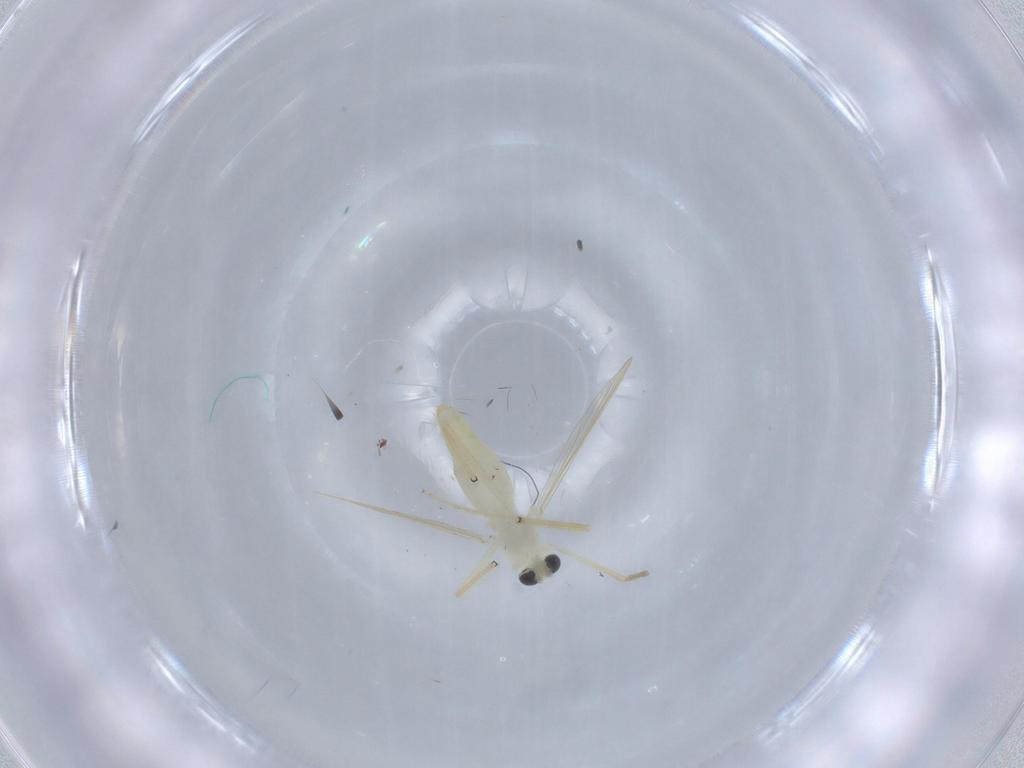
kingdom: Animalia
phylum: Arthropoda
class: Insecta
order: Diptera
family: Chironomidae
